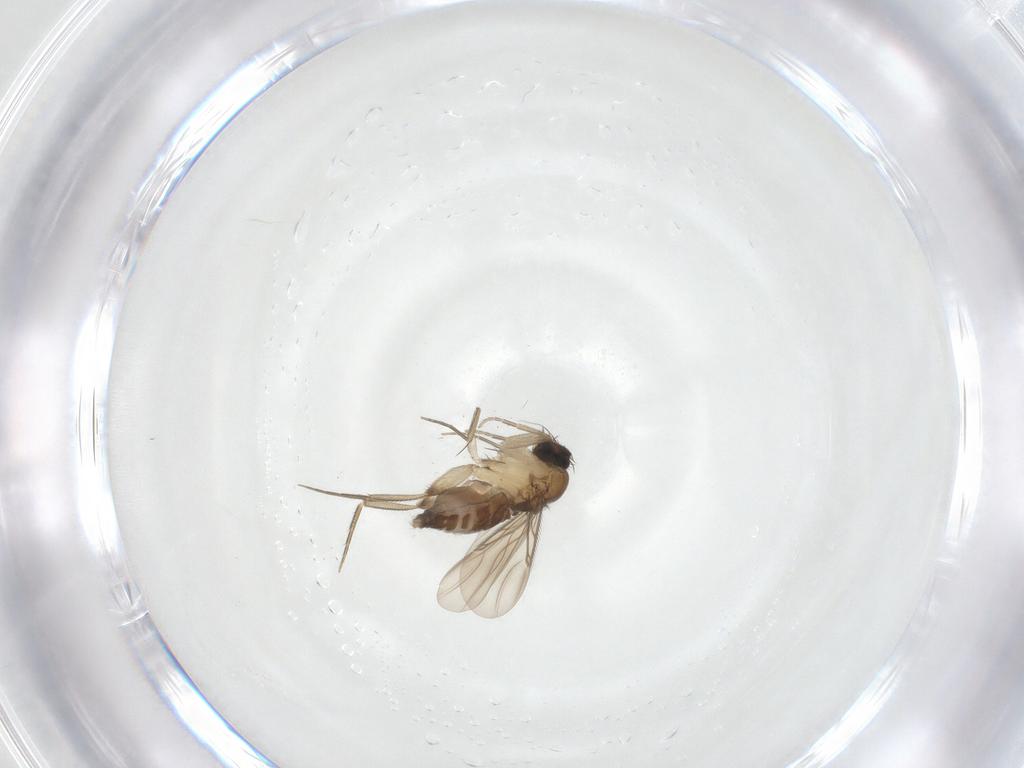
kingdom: Animalia
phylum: Arthropoda
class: Insecta
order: Diptera
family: Phoridae
